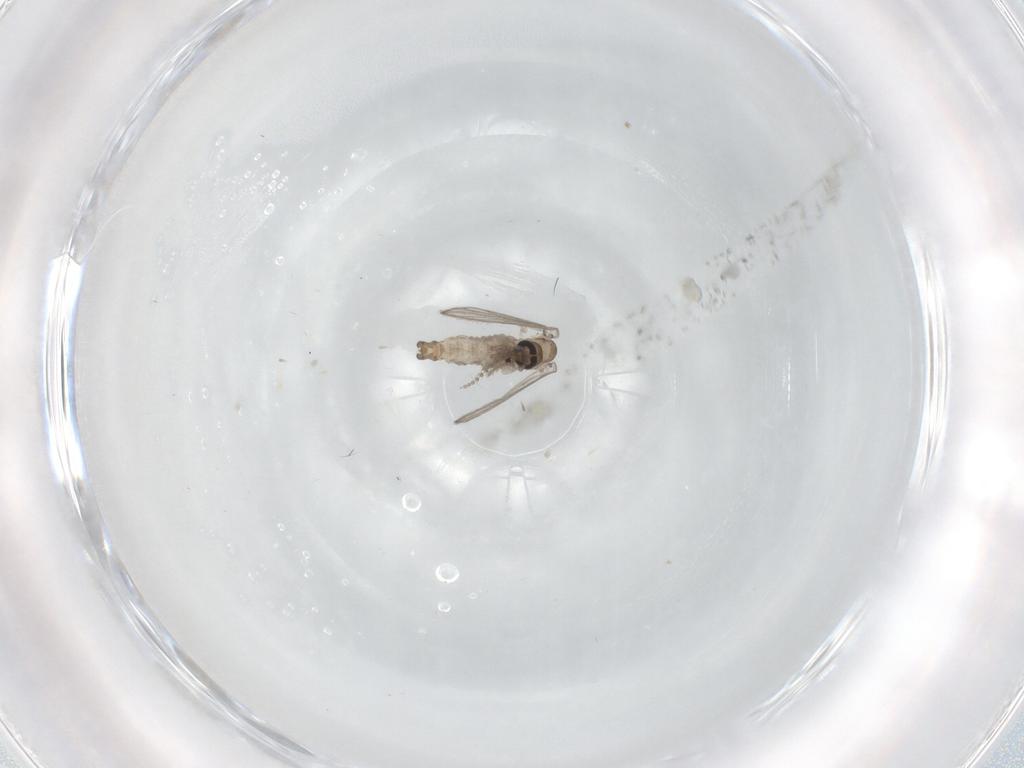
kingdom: Animalia
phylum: Arthropoda
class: Insecta
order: Diptera
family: Psychodidae
